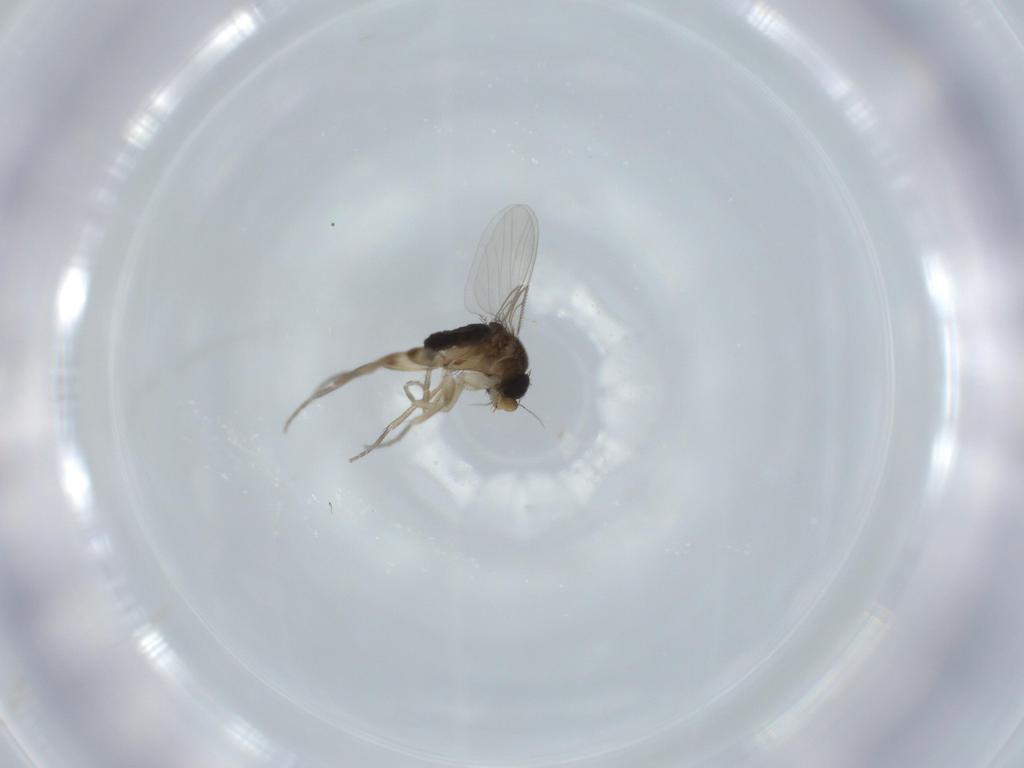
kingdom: Animalia
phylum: Arthropoda
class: Insecta
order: Diptera
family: Phoridae
